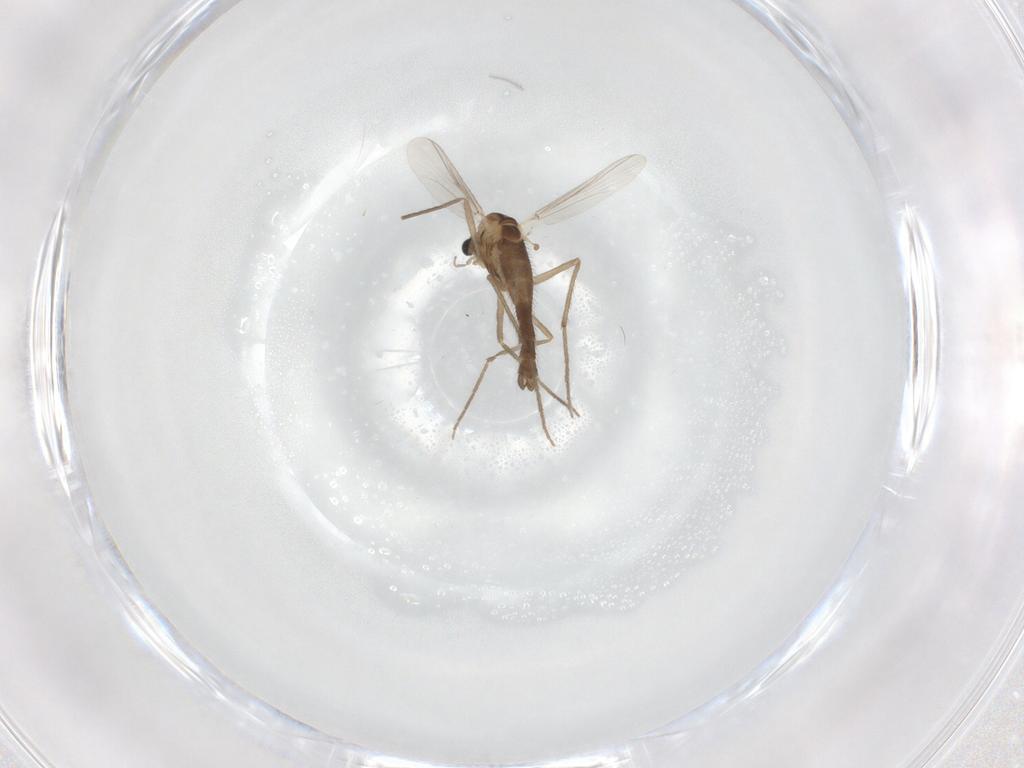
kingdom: Animalia
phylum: Arthropoda
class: Insecta
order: Diptera
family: Chironomidae
